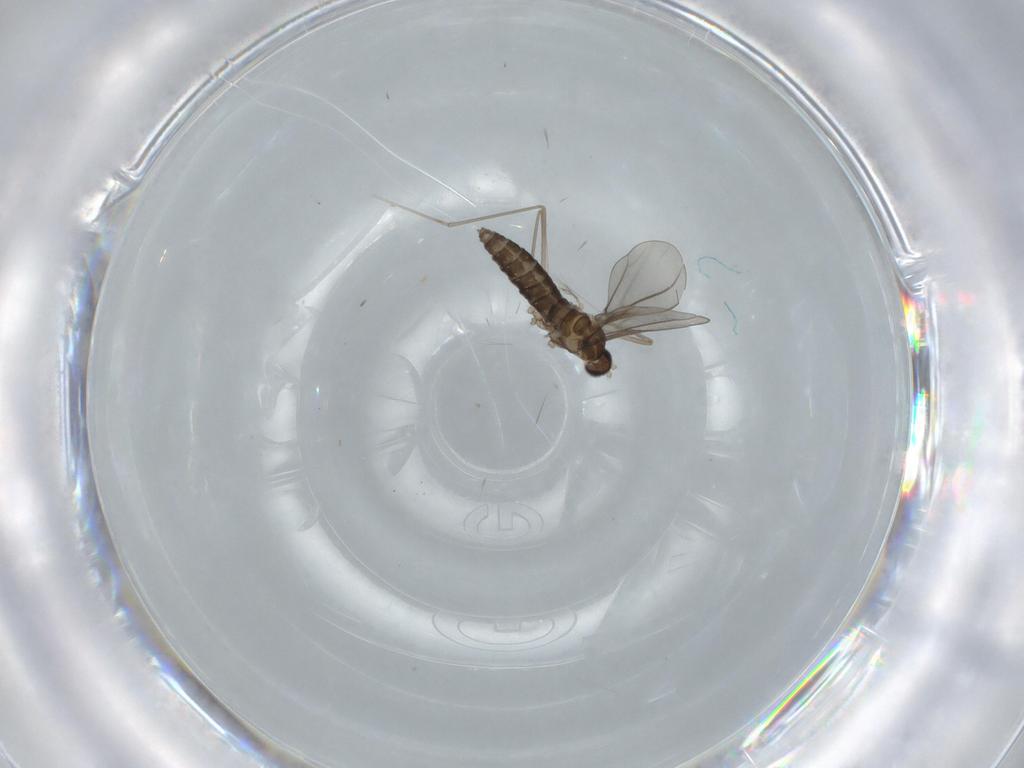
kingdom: Animalia
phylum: Arthropoda
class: Insecta
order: Diptera
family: Cecidomyiidae
